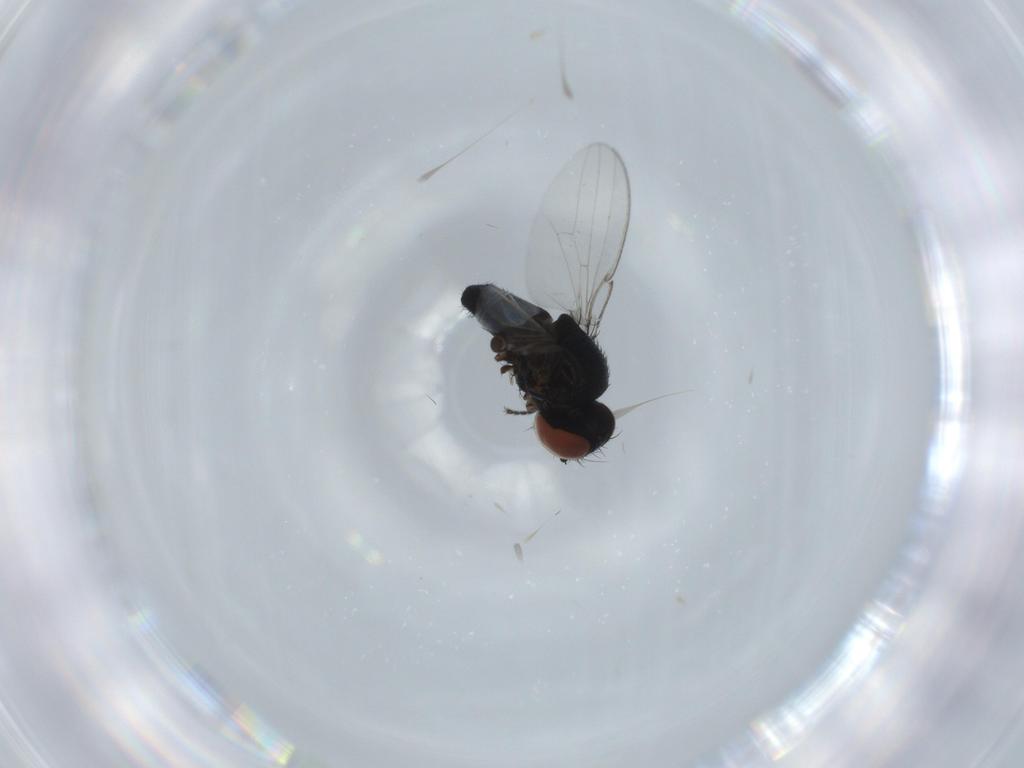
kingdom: Animalia
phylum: Arthropoda
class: Insecta
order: Diptera
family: Milichiidae
